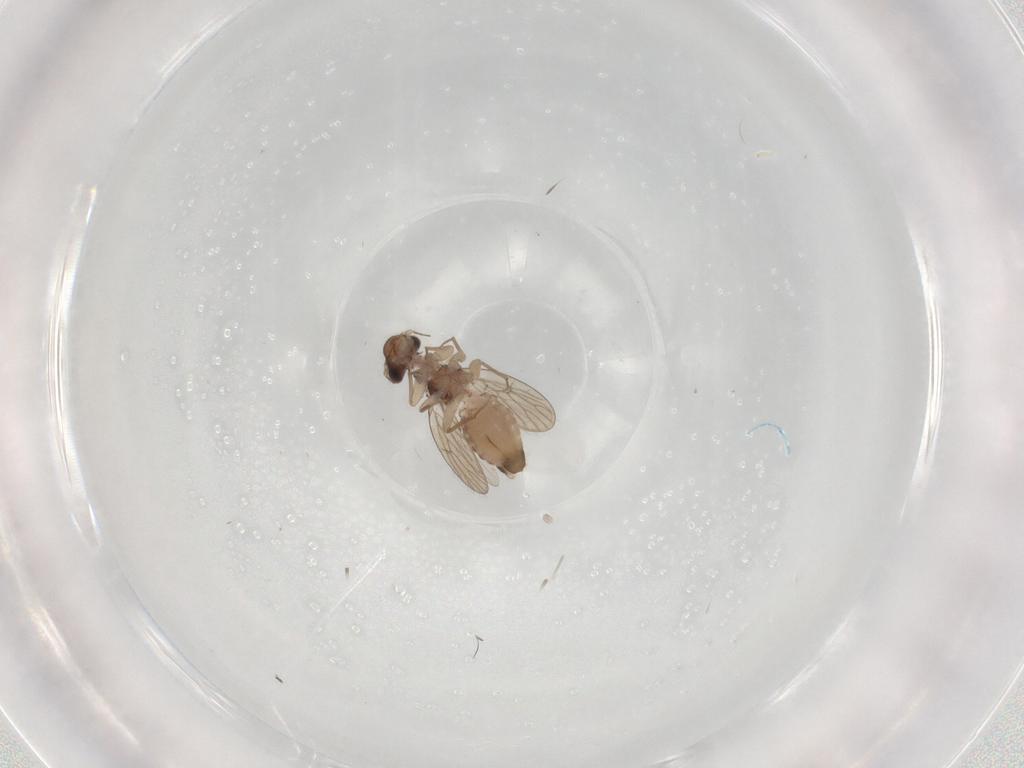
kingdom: Animalia
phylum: Arthropoda
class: Insecta
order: Psocodea
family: Psoquillidae
